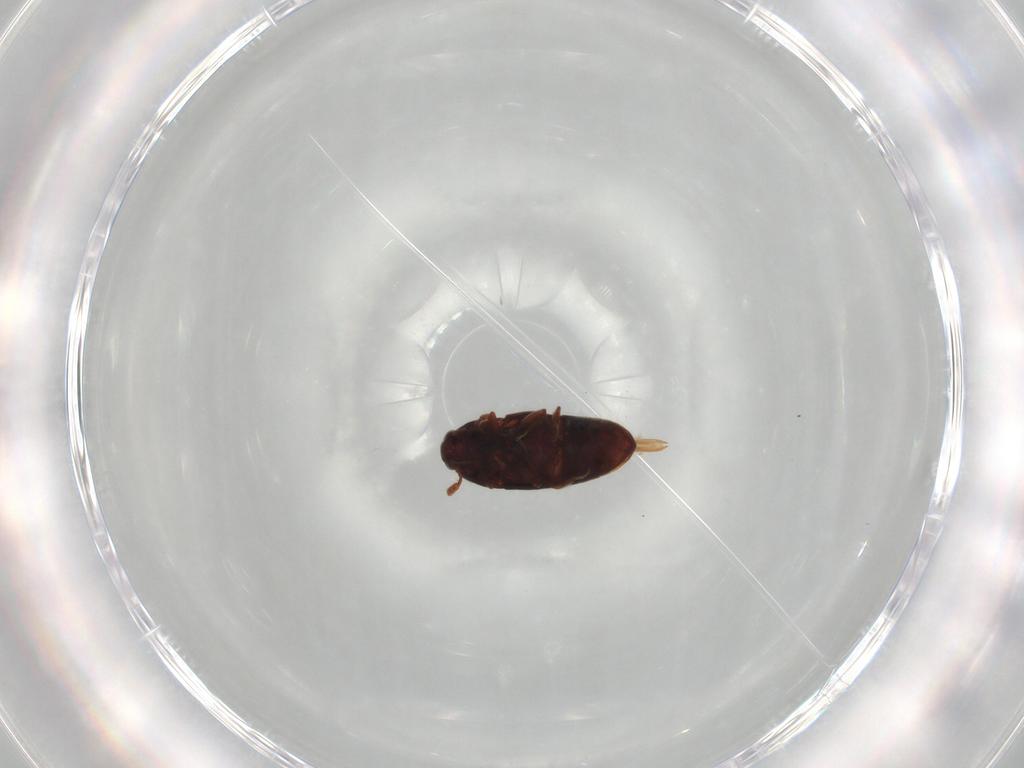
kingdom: Animalia
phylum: Arthropoda
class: Insecta
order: Coleoptera
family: Throscidae
